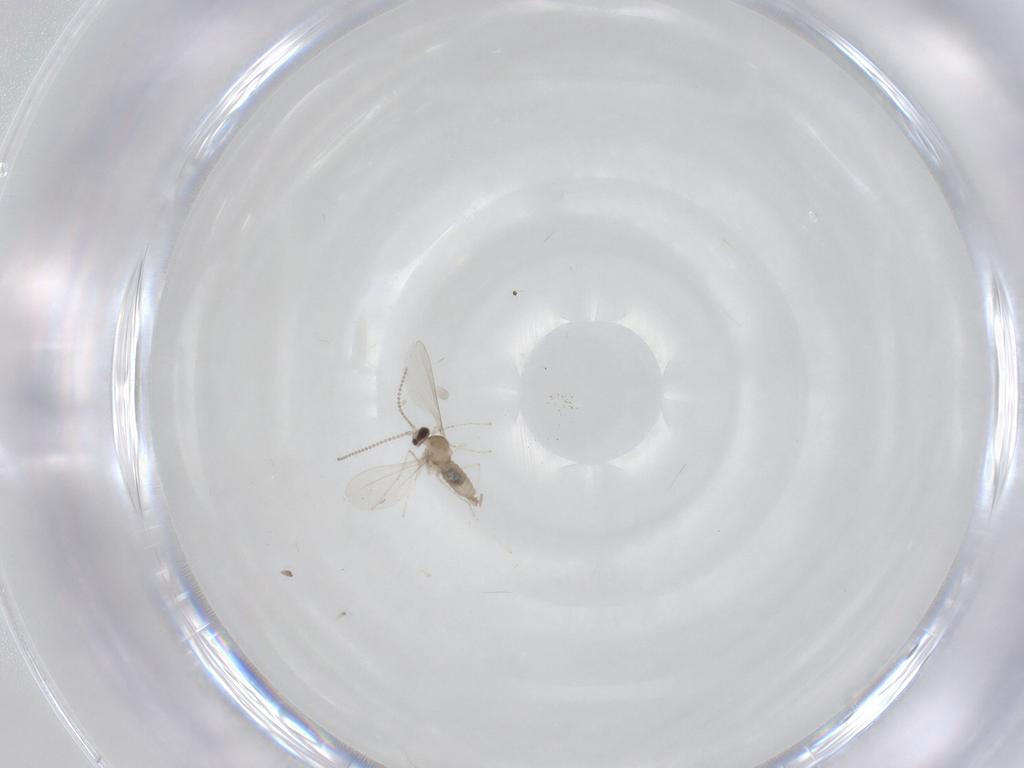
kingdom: Animalia
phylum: Arthropoda
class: Insecta
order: Diptera
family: Cecidomyiidae
